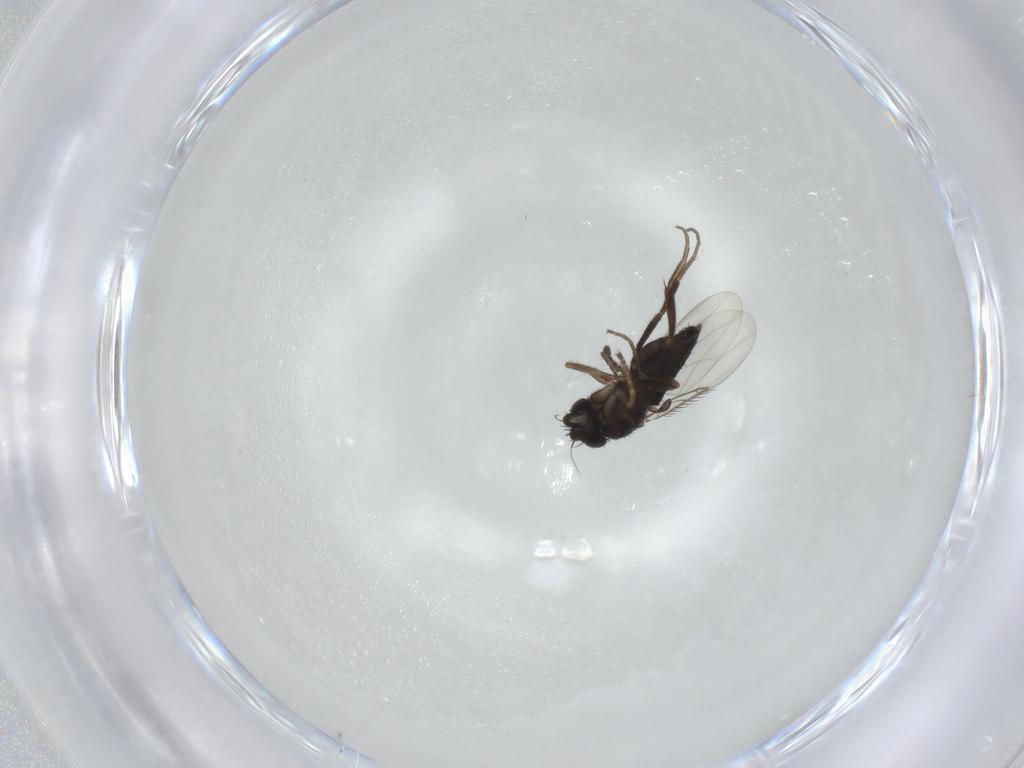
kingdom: Animalia
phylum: Arthropoda
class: Insecta
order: Diptera
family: Phoridae
